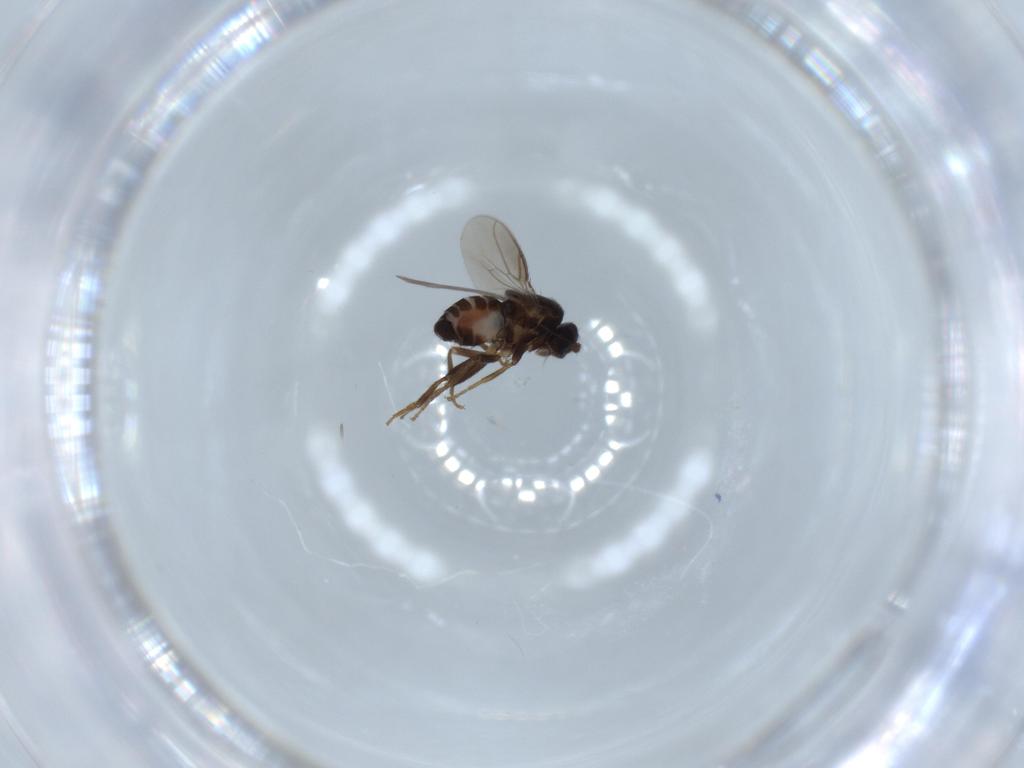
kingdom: Animalia
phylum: Arthropoda
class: Insecta
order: Diptera
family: Sphaeroceridae
